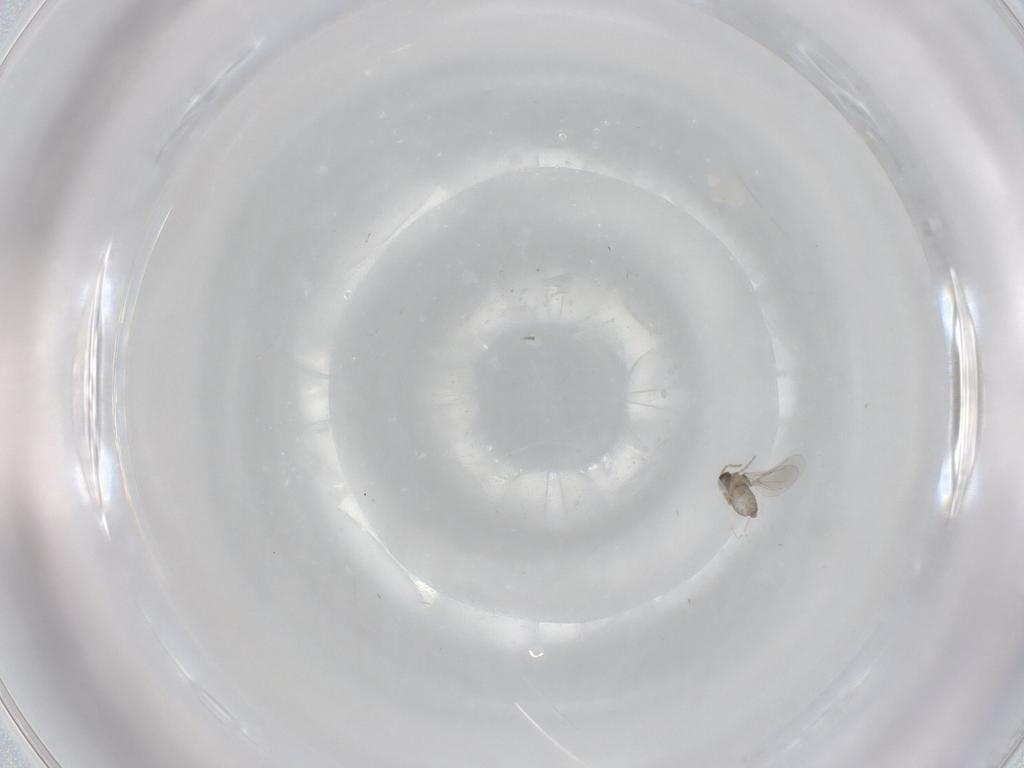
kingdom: Animalia
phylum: Arthropoda
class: Insecta
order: Diptera
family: Cecidomyiidae
